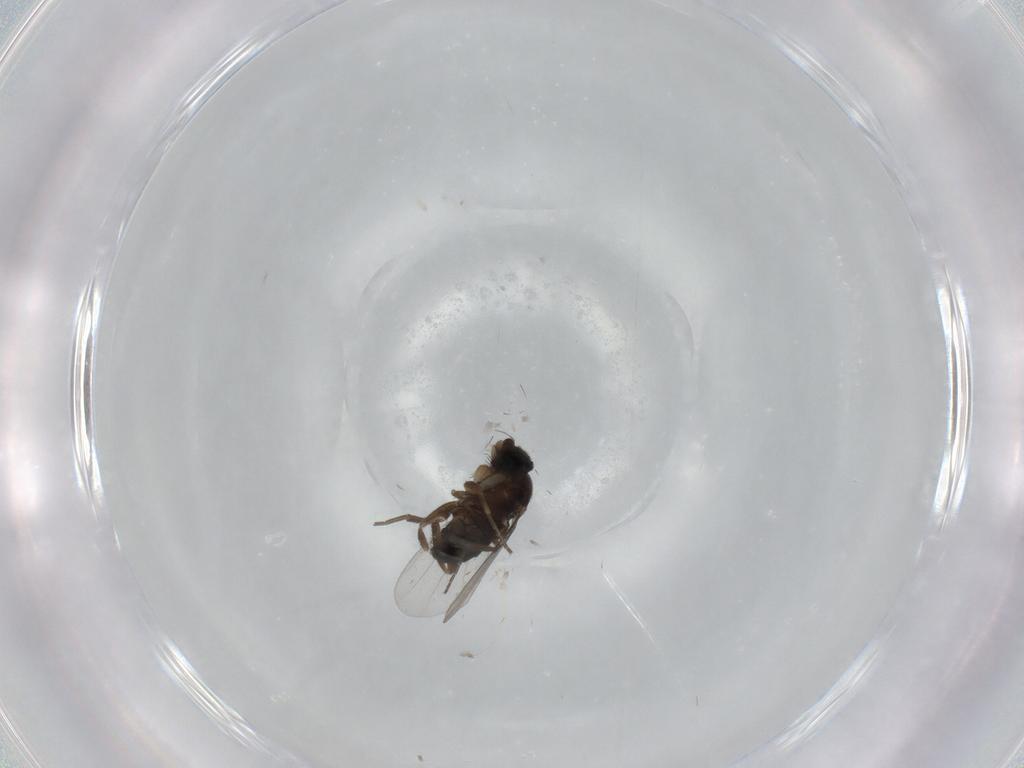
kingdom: Animalia
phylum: Arthropoda
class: Insecta
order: Diptera
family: Phoridae
